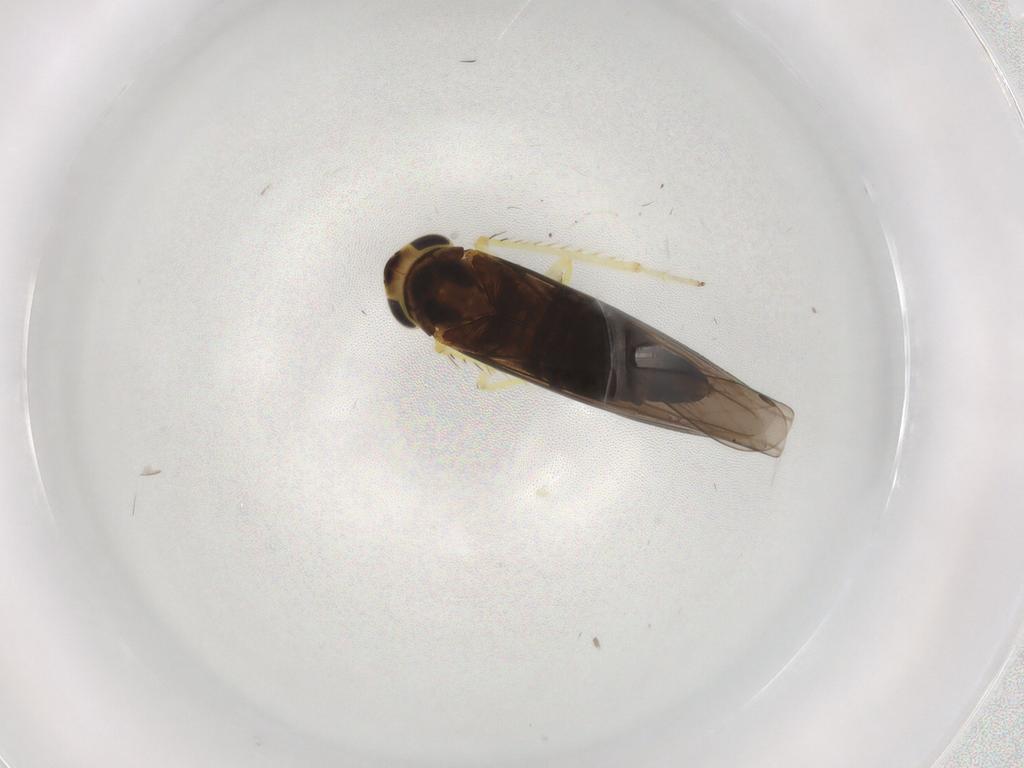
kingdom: Animalia
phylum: Arthropoda
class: Insecta
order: Hemiptera
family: Cicadellidae
